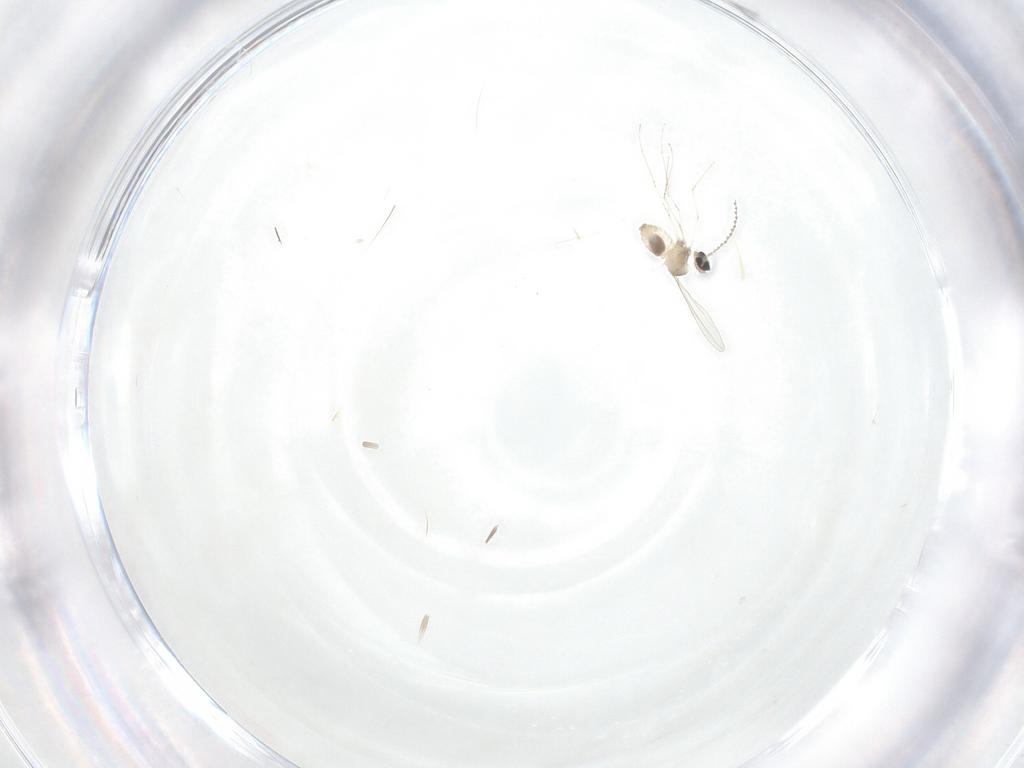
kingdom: Animalia
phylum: Arthropoda
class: Insecta
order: Diptera
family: Cecidomyiidae
